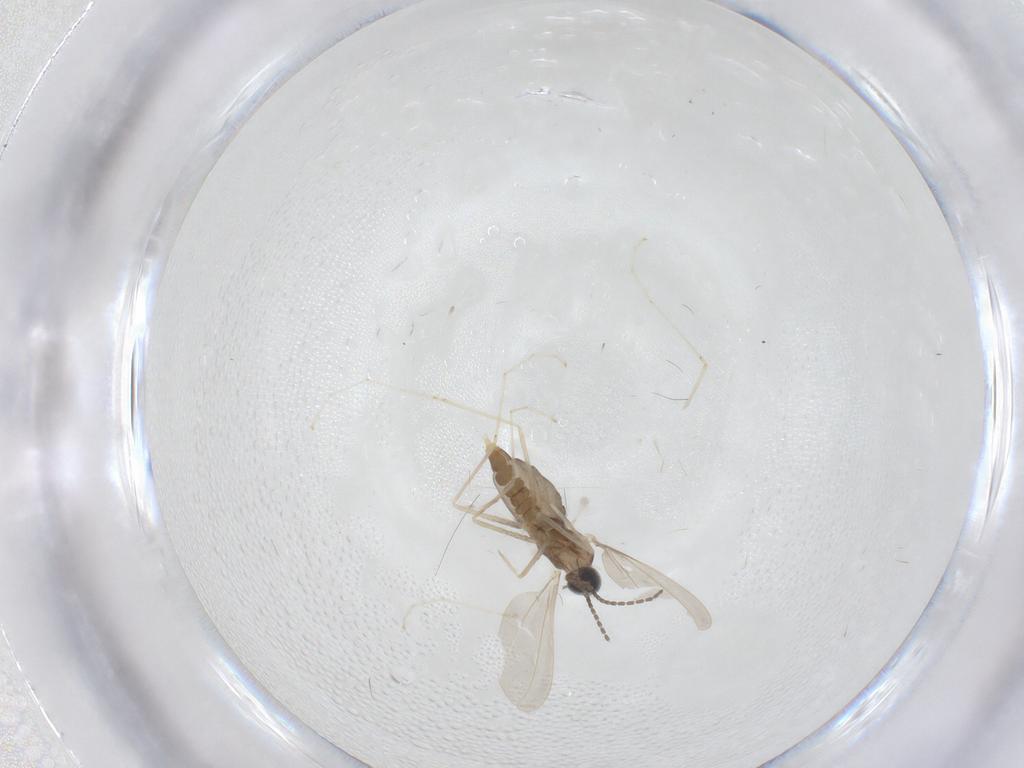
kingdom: Animalia
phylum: Arthropoda
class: Insecta
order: Diptera
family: Cecidomyiidae
